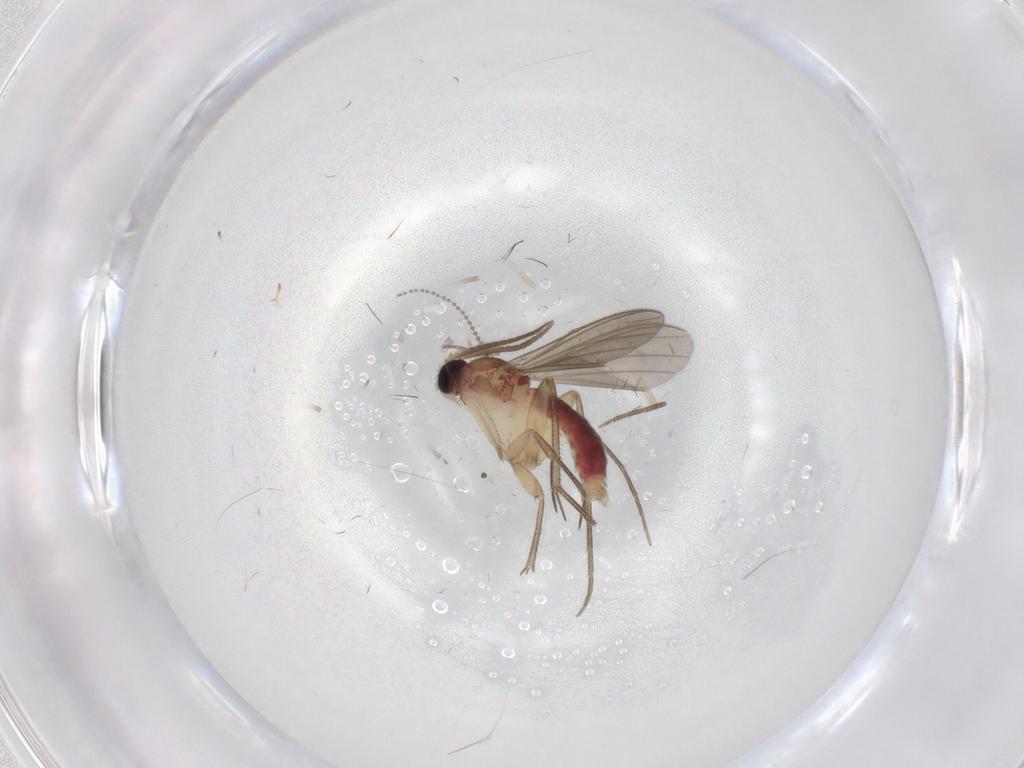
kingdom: Animalia
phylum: Arthropoda
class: Insecta
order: Diptera
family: Mycetophilidae
